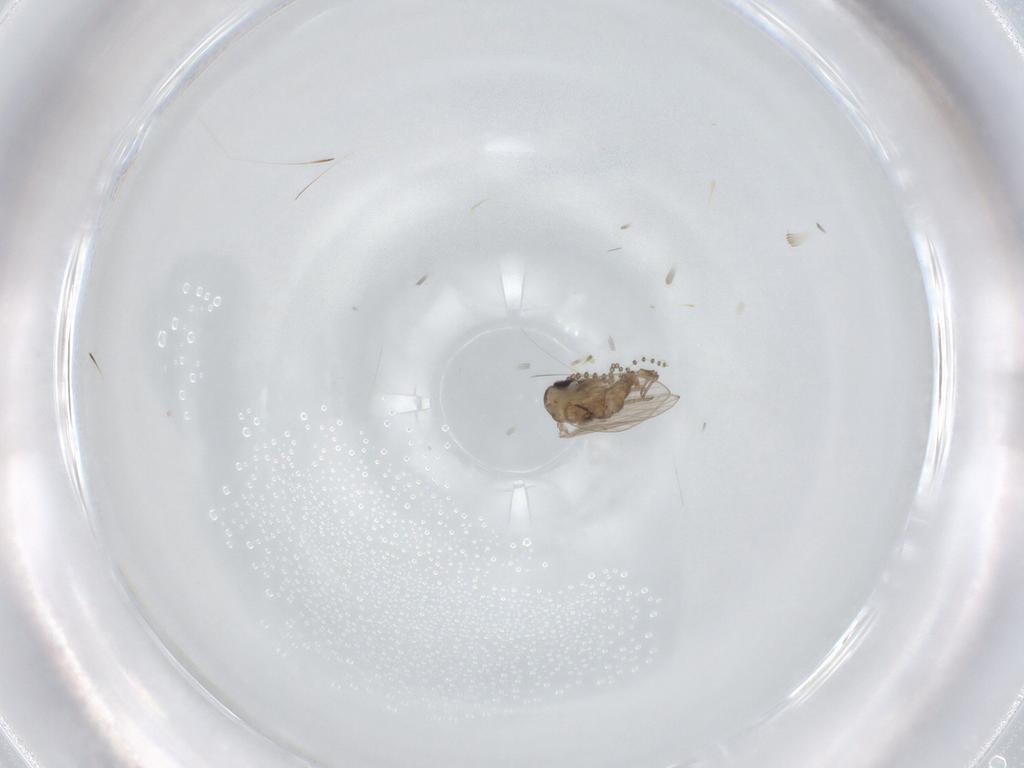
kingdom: Animalia
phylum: Arthropoda
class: Insecta
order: Diptera
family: Psychodidae
